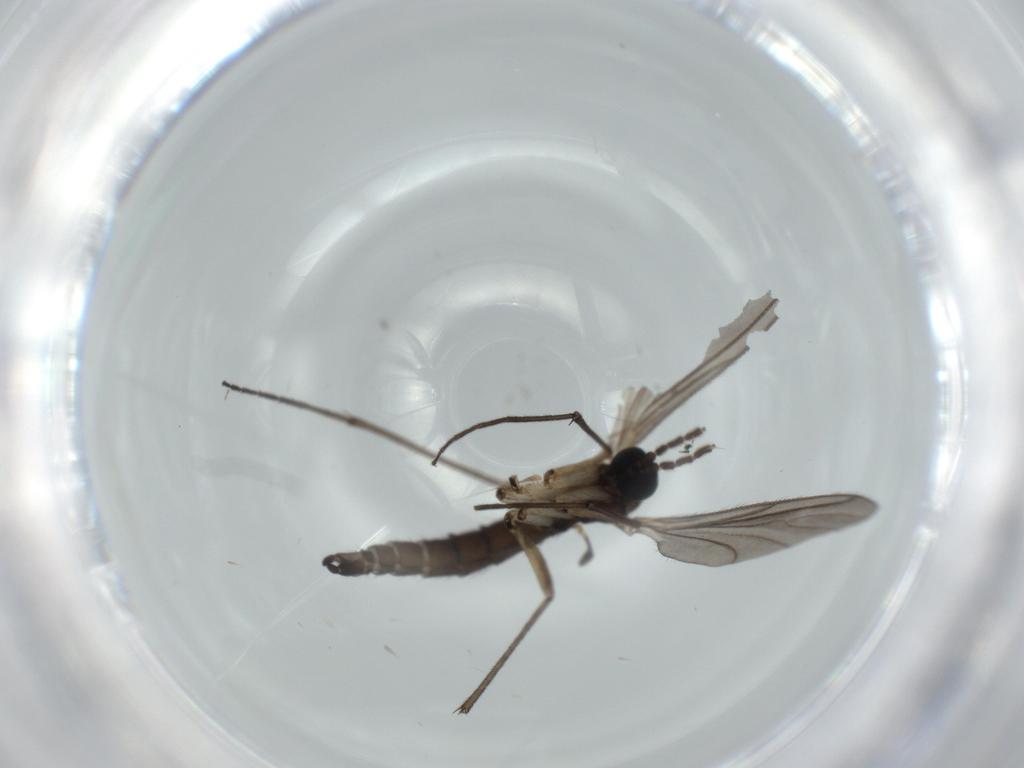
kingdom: Animalia
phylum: Arthropoda
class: Insecta
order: Diptera
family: Sciaridae
